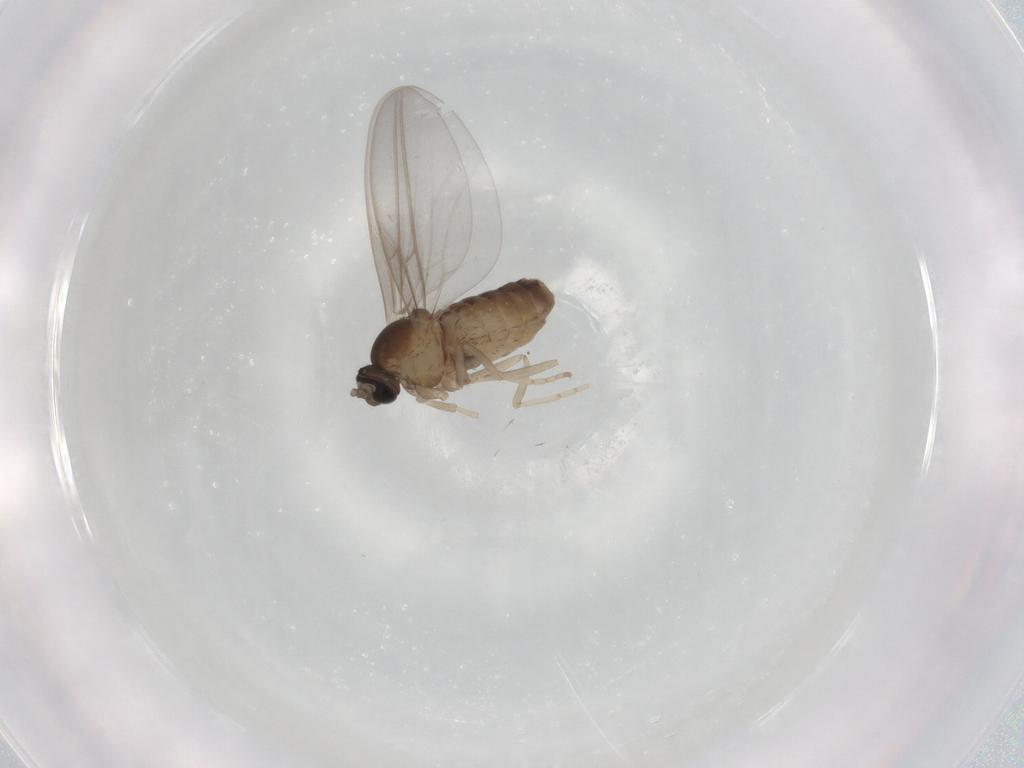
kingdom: Animalia
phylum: Arthropoda
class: Insecta
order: Diptera
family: Cecidomyiidae
